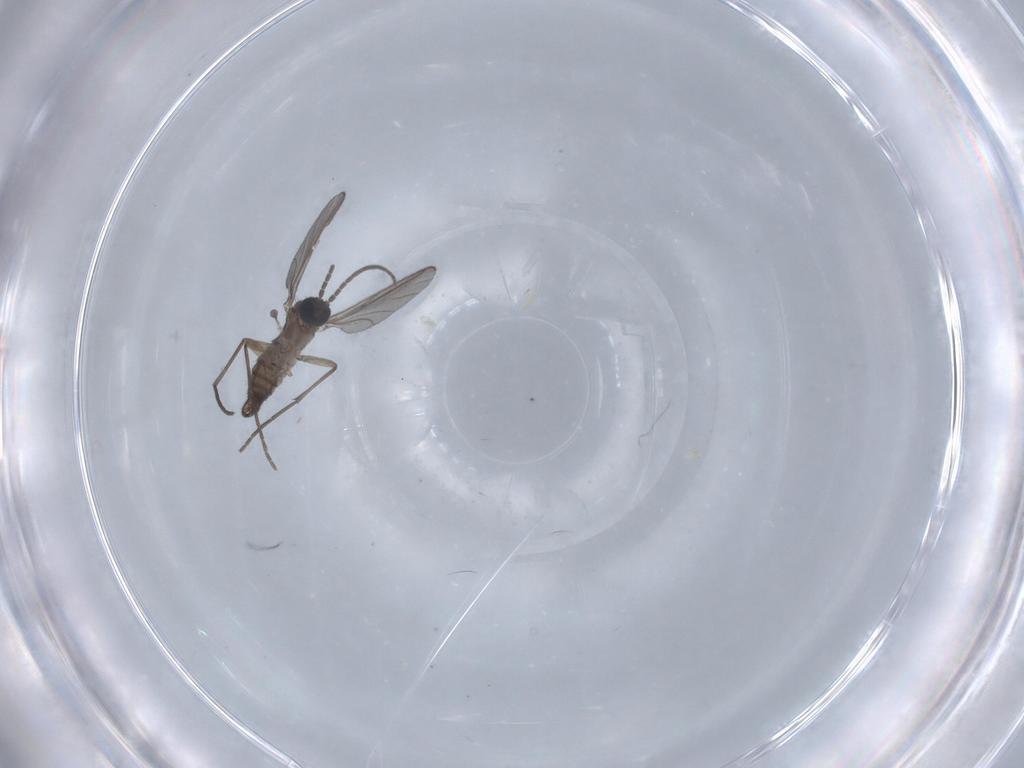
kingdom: Animalia
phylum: Arthropoda
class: Insecta
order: Diptera
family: Sciaridae
